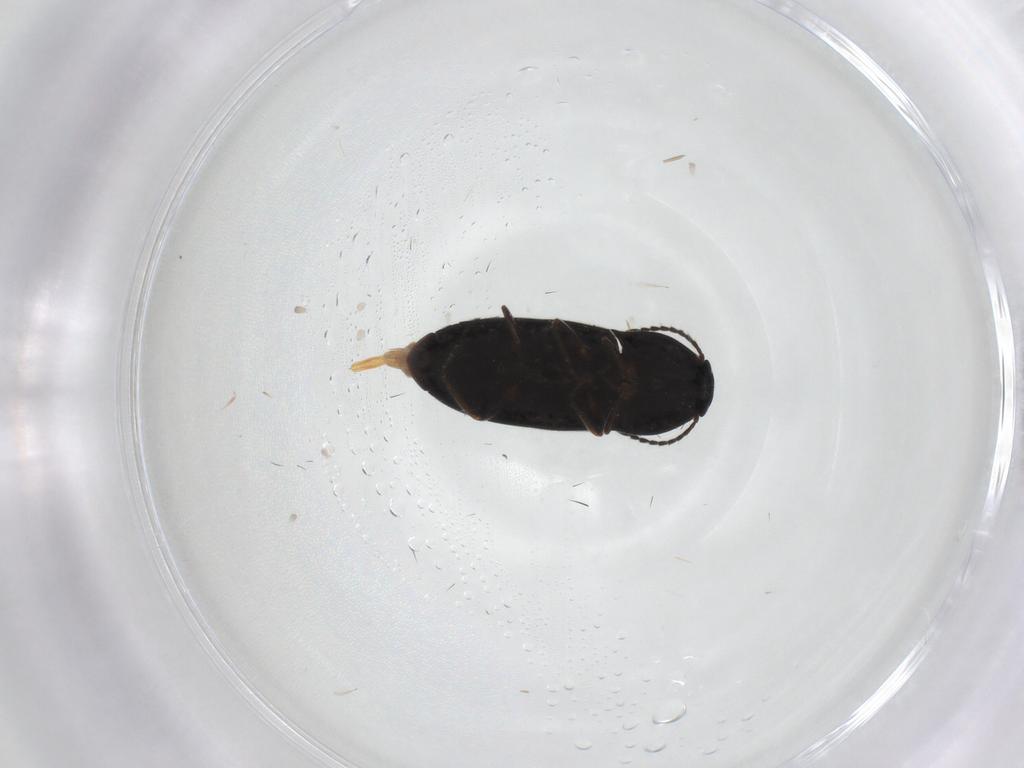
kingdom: Animalia
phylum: Arthropoda
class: Insecta
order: Coleoptera
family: Elateridae
